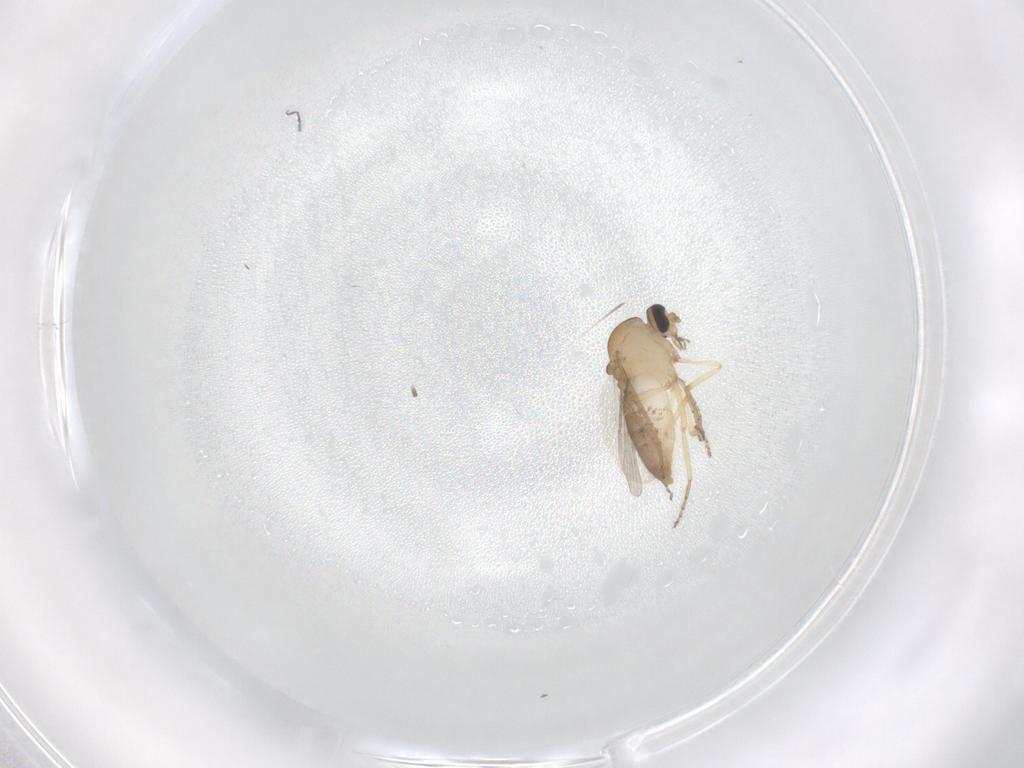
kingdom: Animalia
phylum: Arthropoda
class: Insecta
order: Diptera
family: Ceratopogonidae
